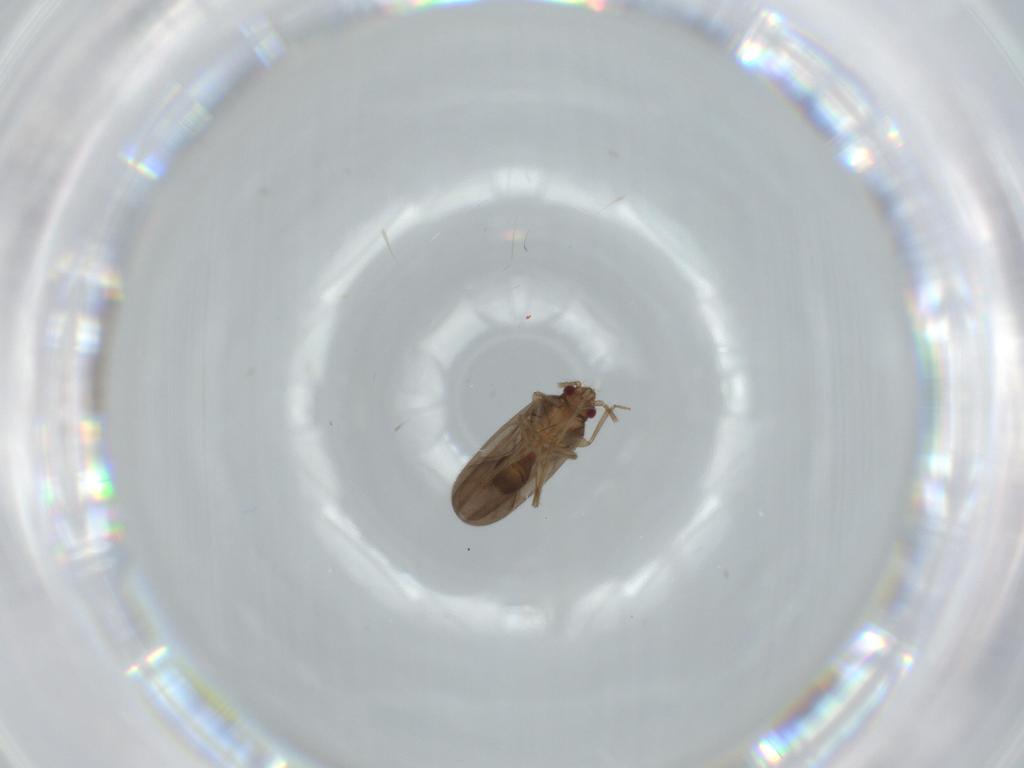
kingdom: Animalia
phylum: Arthropoda
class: Insecta
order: Hemiptera
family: Ceratocombidae
